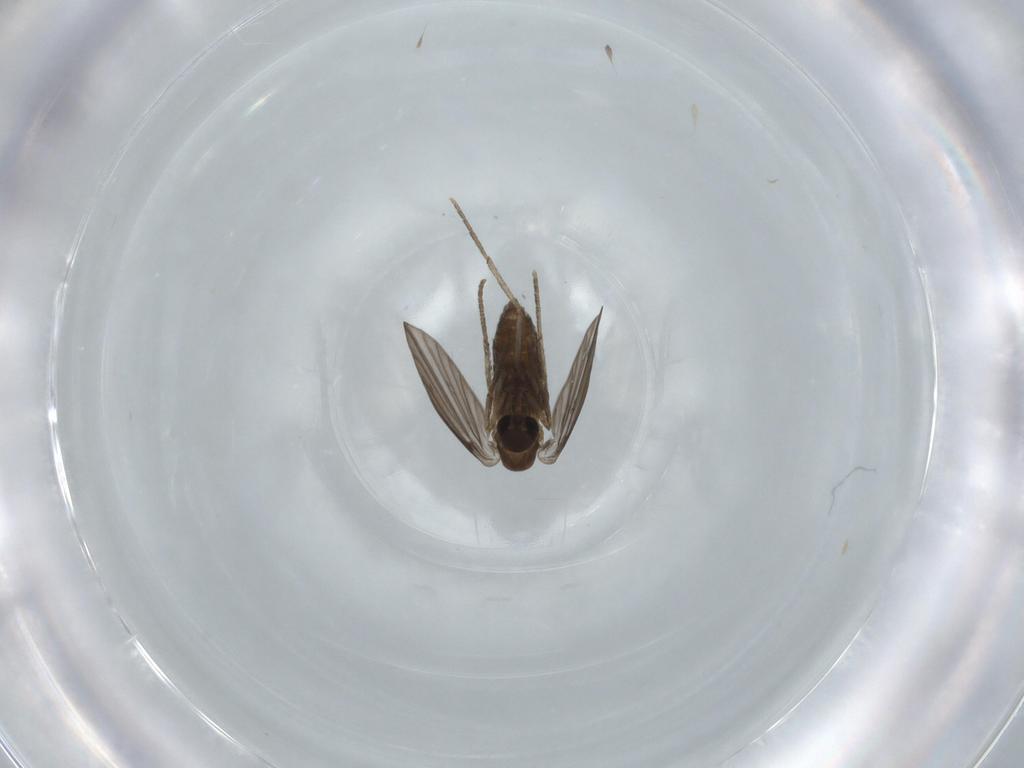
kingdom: Animalia
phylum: Arthropoda
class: Insecta
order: Diptera
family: Psychodidae
